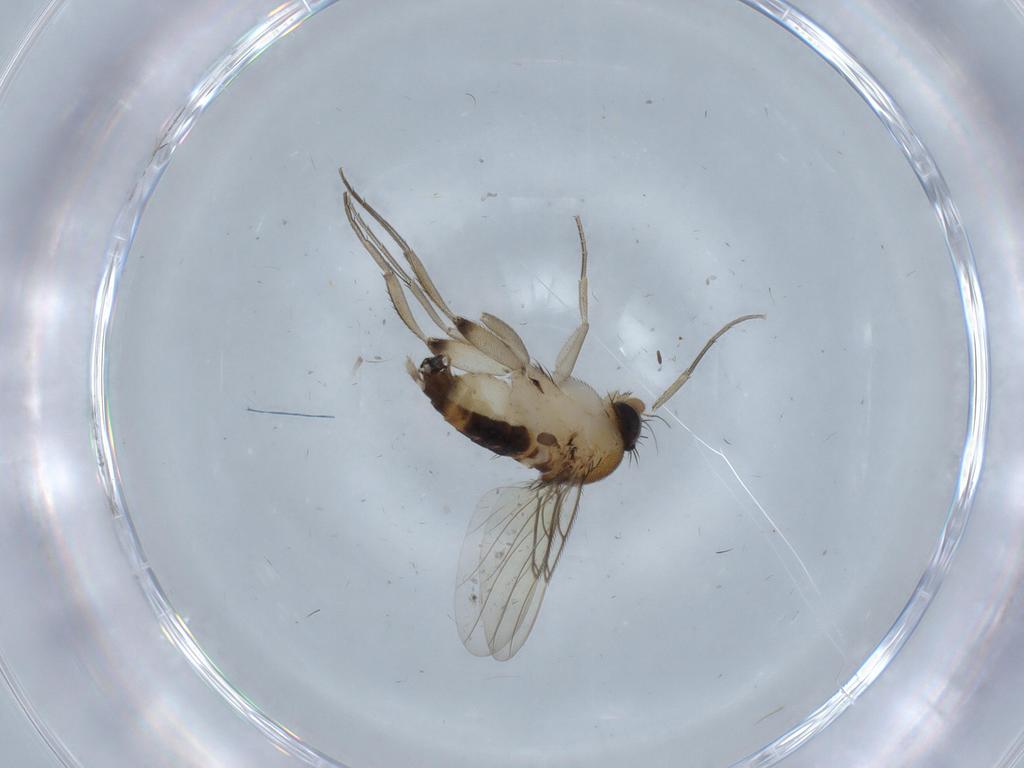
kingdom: Animalia
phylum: Arthropoda
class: Insecta
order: Diptera
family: Phoridae
